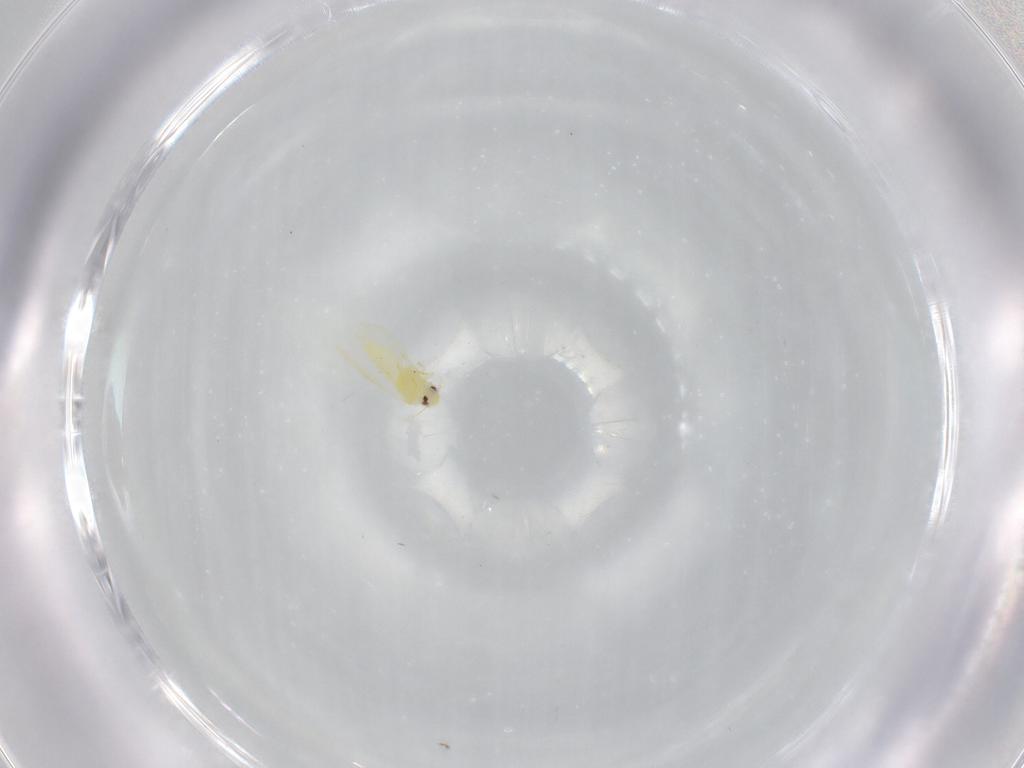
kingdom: Animalia
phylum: Arthropoda
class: Insecta
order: Hemiptera
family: Aleyrodidae
